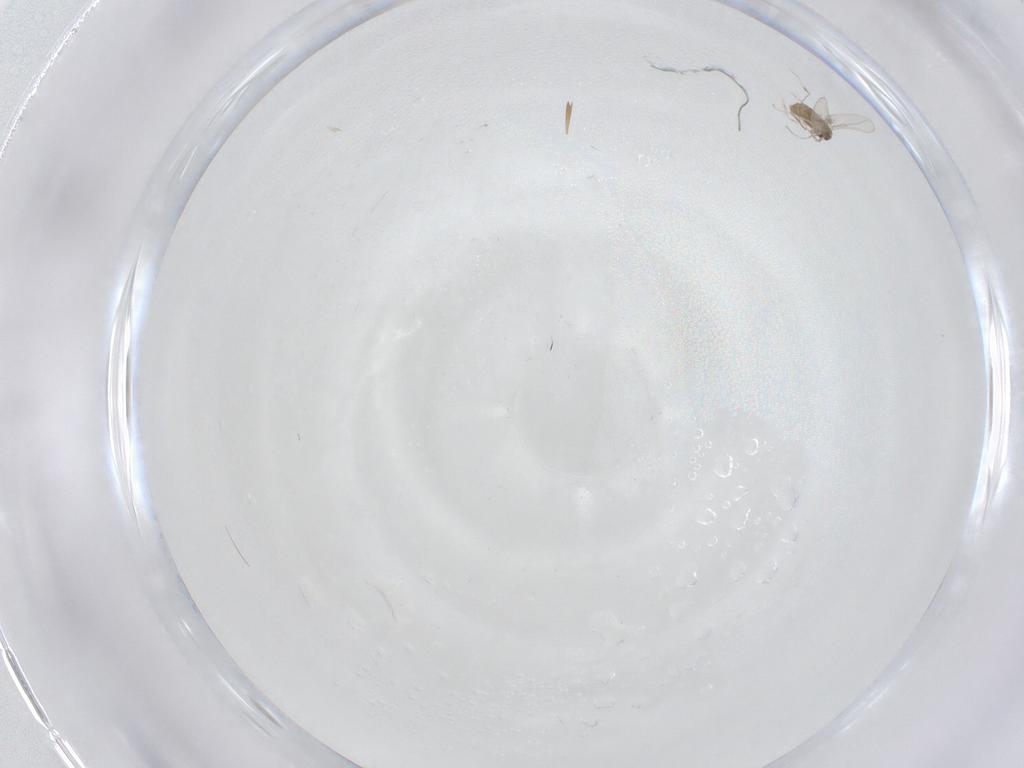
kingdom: Animalia
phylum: Arthropoda
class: Insecta
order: Diptera
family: Cecidomyiidae
